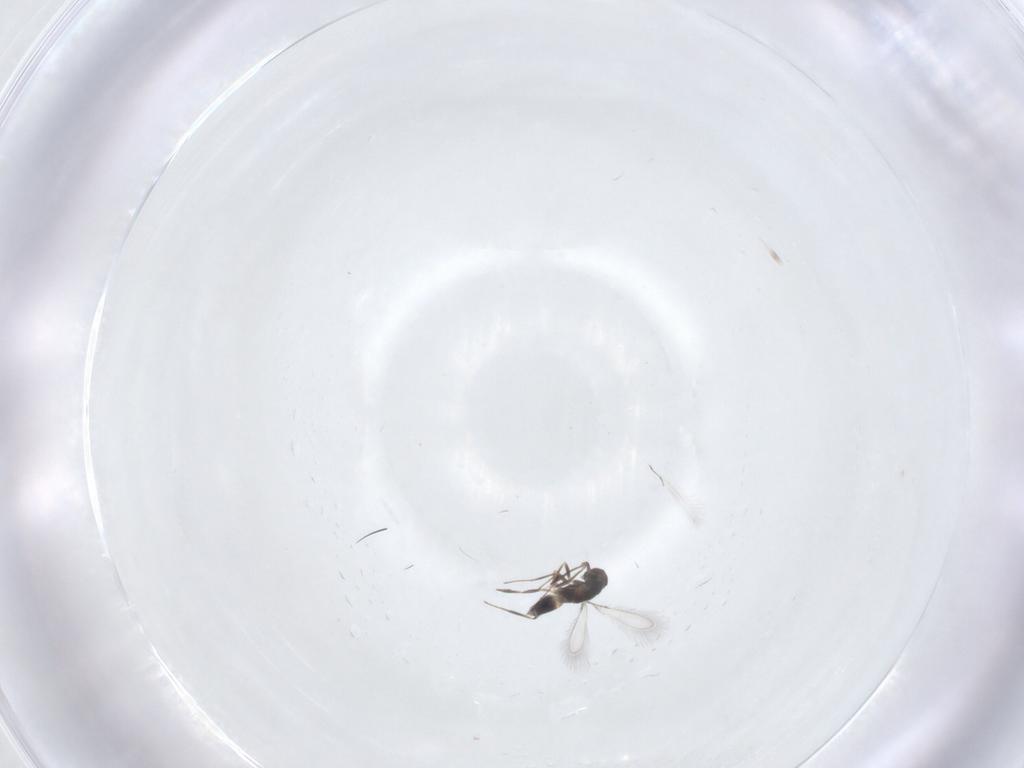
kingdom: Animalia
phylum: Arthropoda
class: Insecta
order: Hymenoptera
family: Mymaridae
